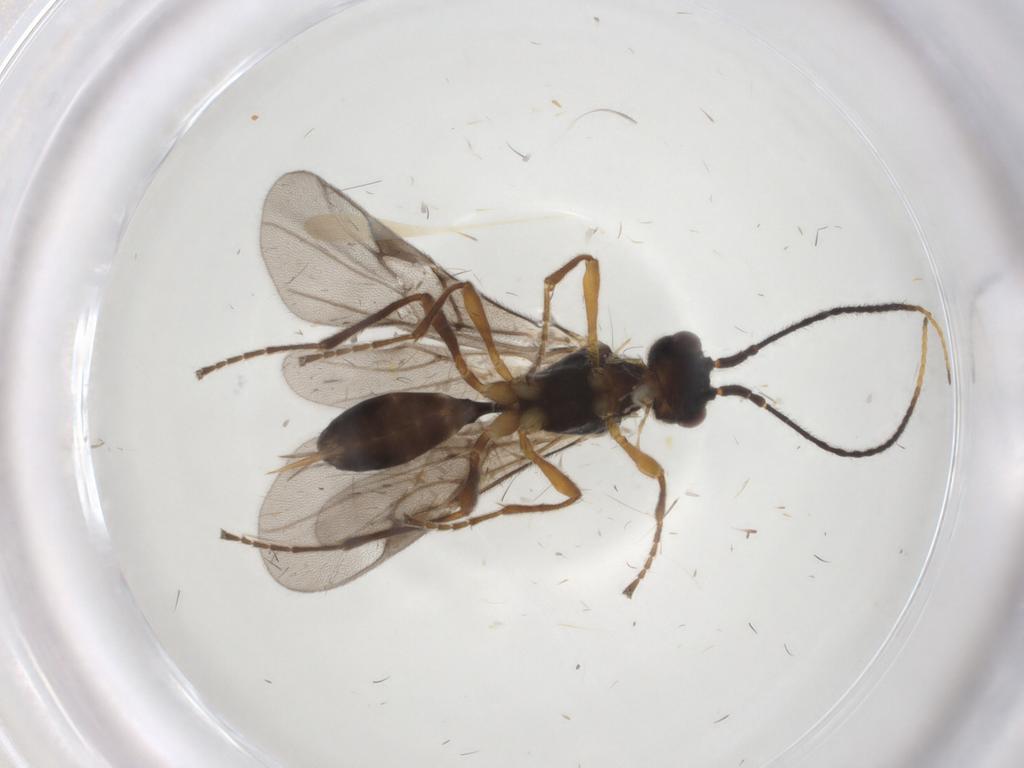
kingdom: Animalia
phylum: Arthropoda
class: Insecta
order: Hymenoptera
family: Braconidae
